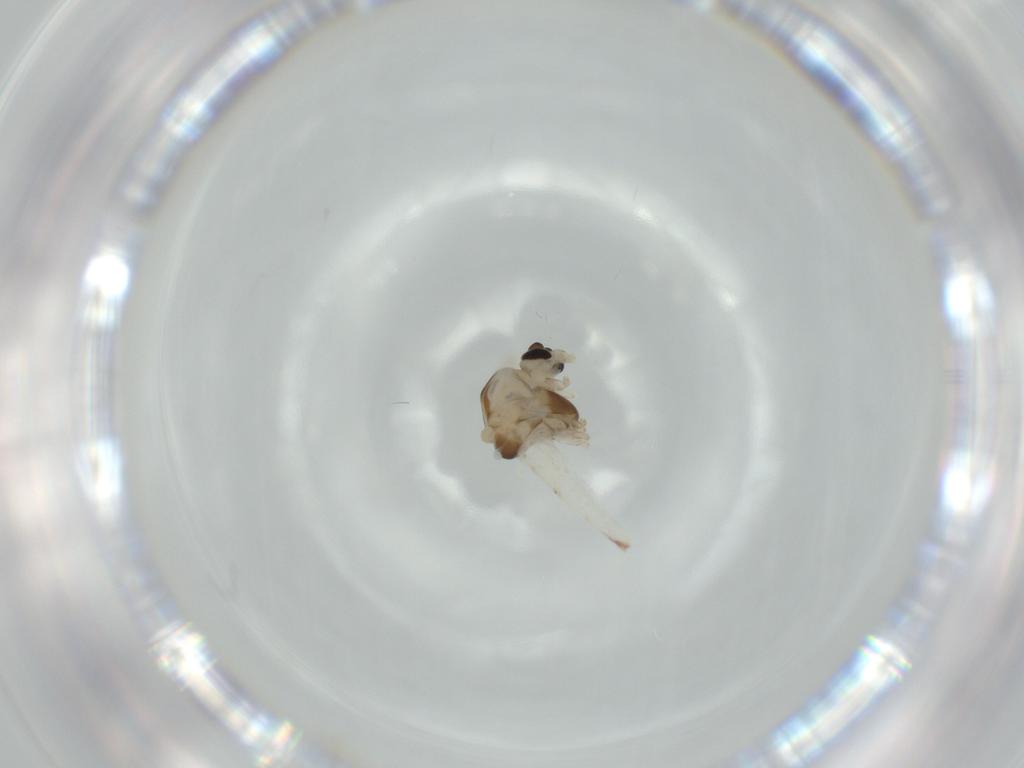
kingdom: Animalia
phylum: Arthropoda
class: Insecta
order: Diptera
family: Chironomidae
